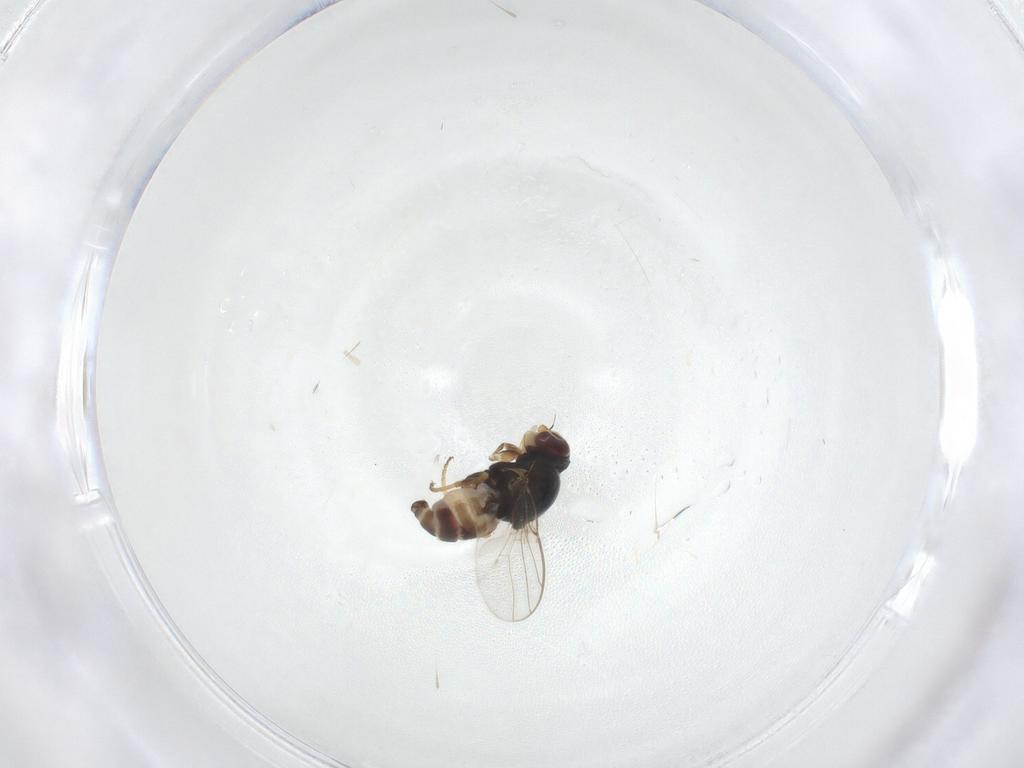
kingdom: Animalia
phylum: Arthropoda
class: Insecta
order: Diptera
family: Chloropidae
